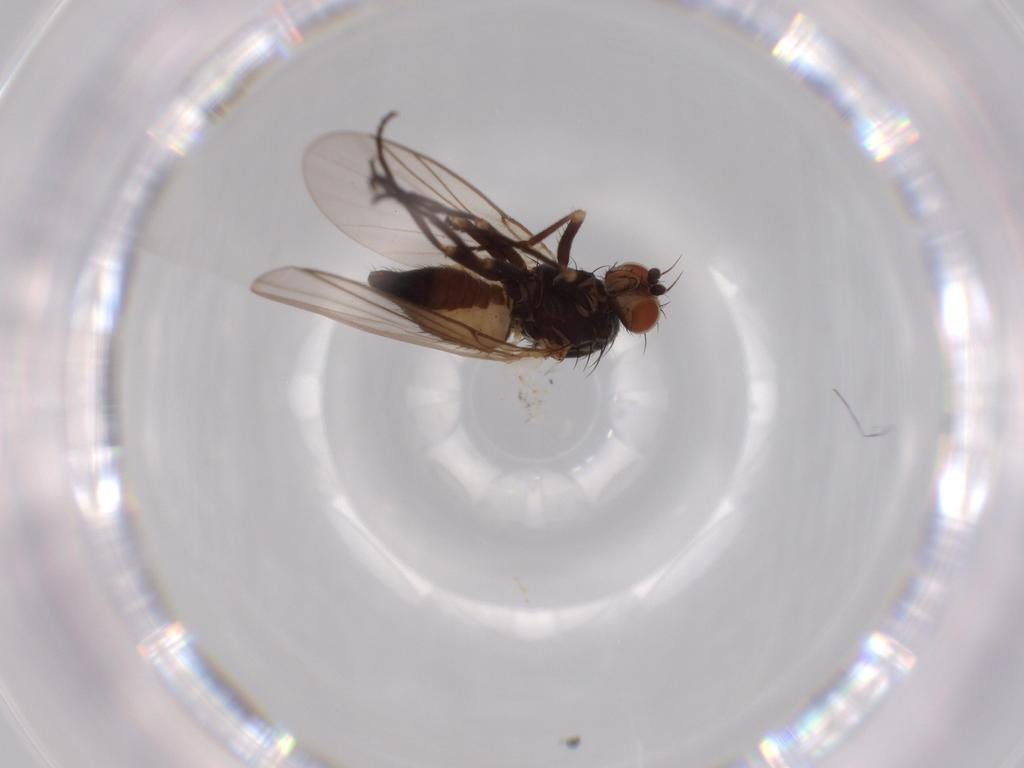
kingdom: Animalia
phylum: Arthropoda
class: Insecta
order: Diptera
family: Agromyzidae
